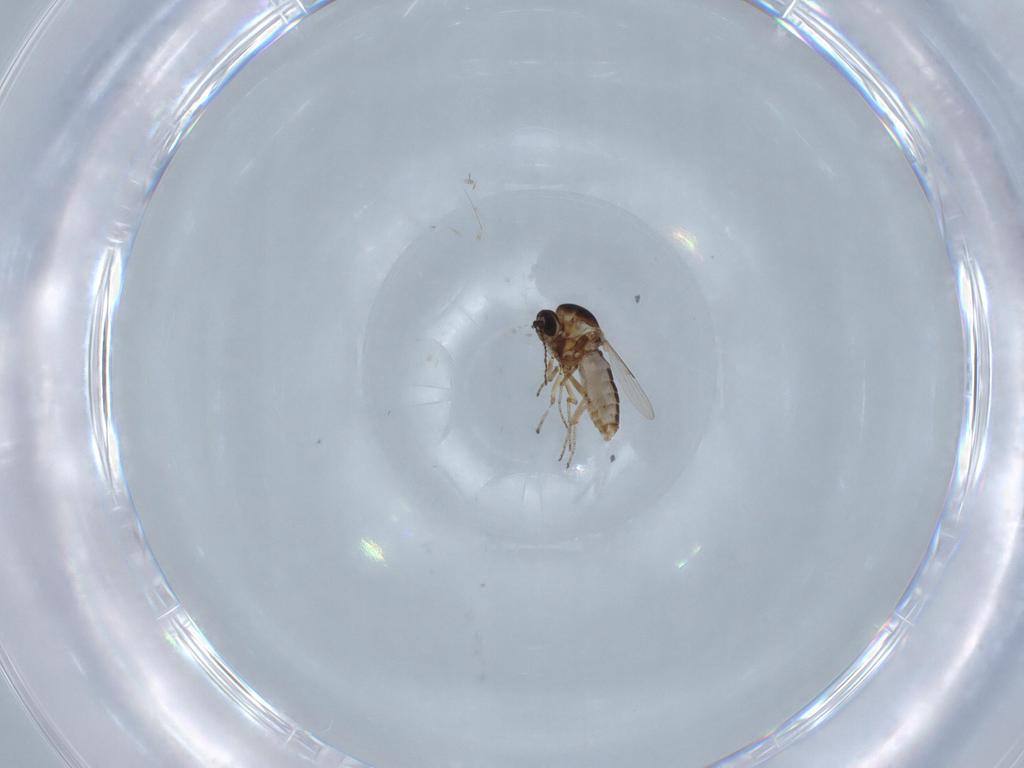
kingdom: Animalia
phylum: Arthropoda
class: Insecta
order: Diptera
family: Ceratopogonidae
